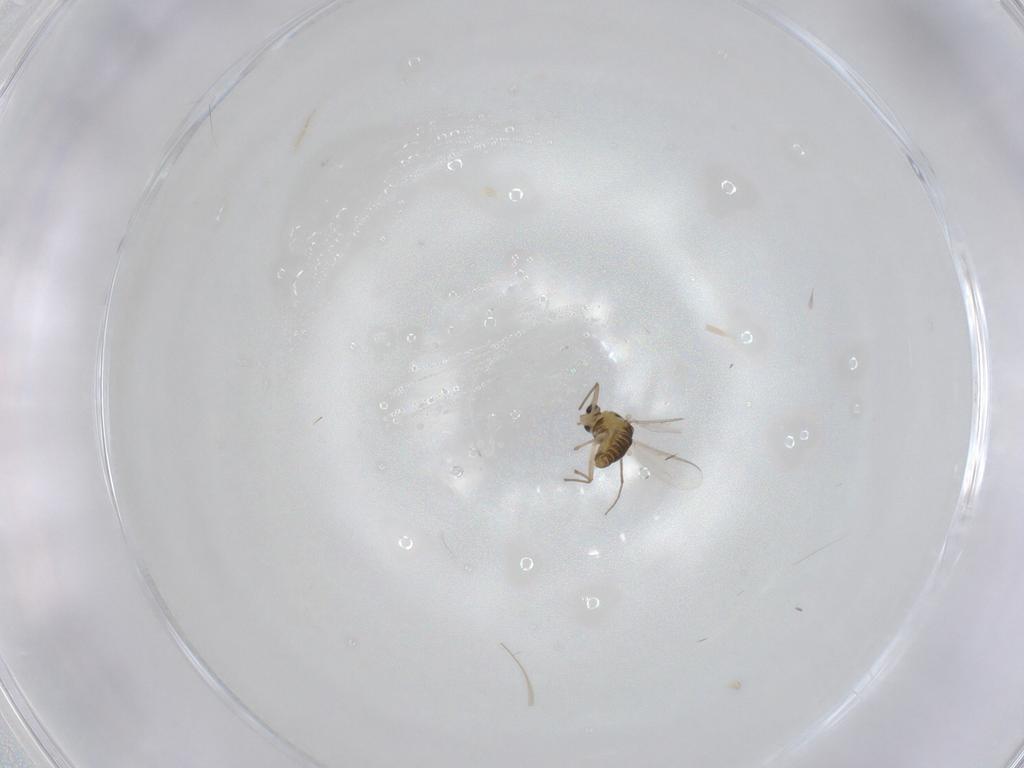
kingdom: Animalia
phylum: Arthropoda
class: Insecta
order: Diptera
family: Chironomidae
